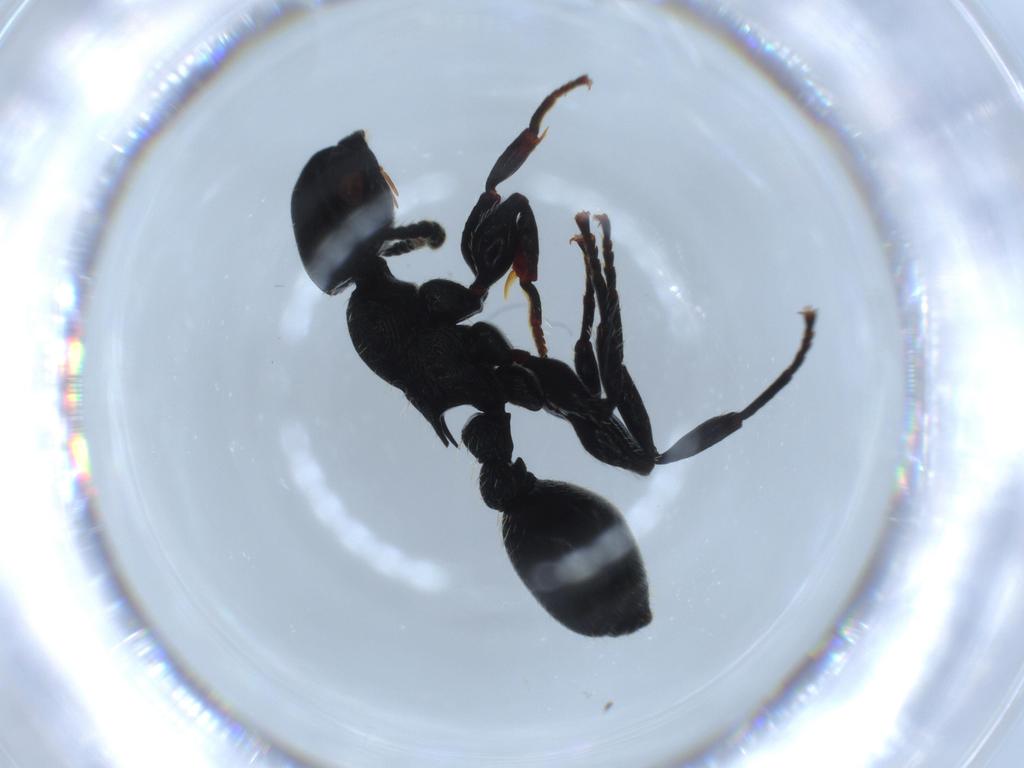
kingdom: Animalia
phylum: Arthropoda
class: Insecta
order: Hymenoptera
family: Formicidae
